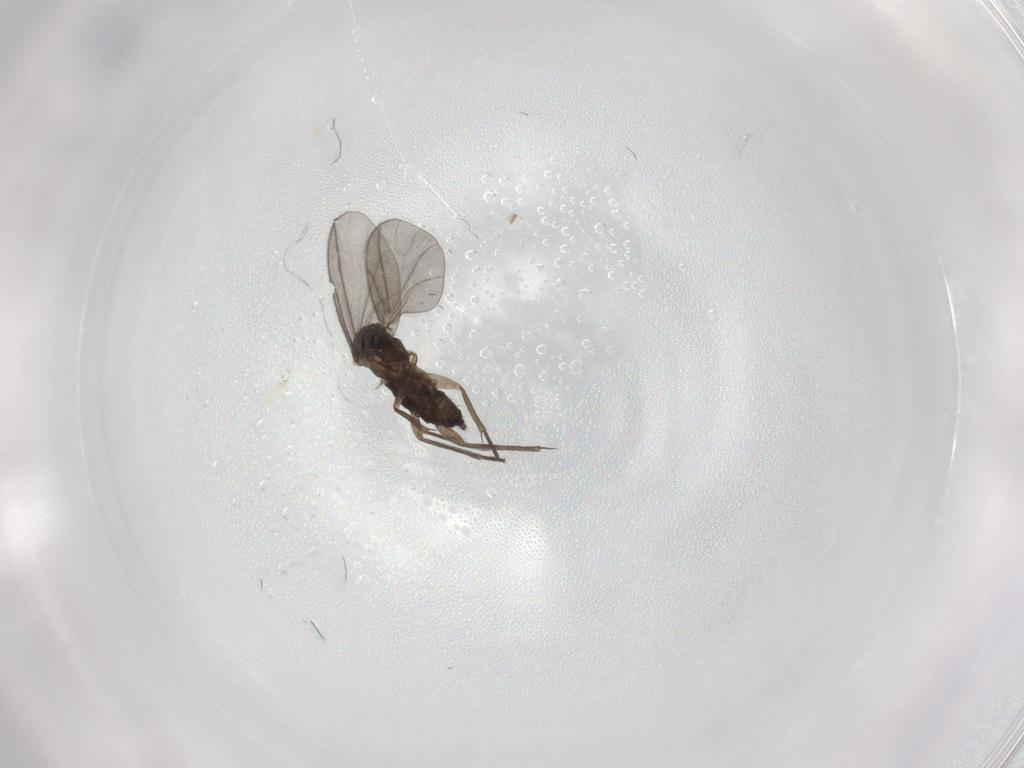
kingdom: Animalia
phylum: Arthropoda
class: Insecta
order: Diptera
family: Sciaridae
